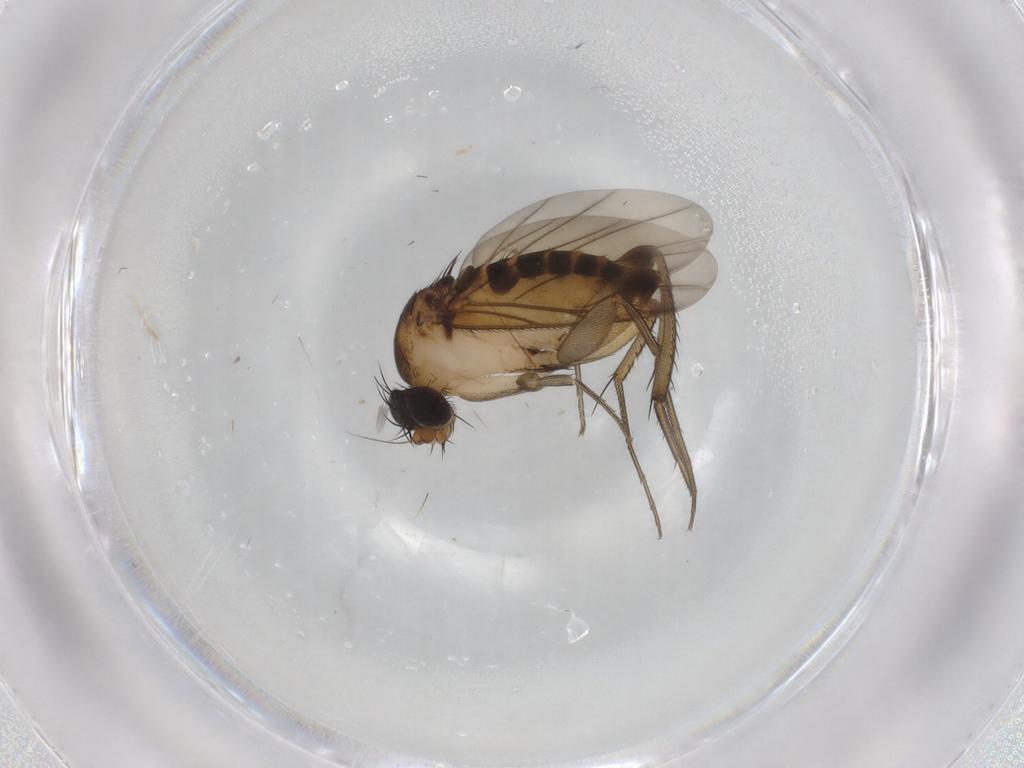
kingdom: Animalia
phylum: Arthropoda
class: Insecta
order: Diptera
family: Phoridae
